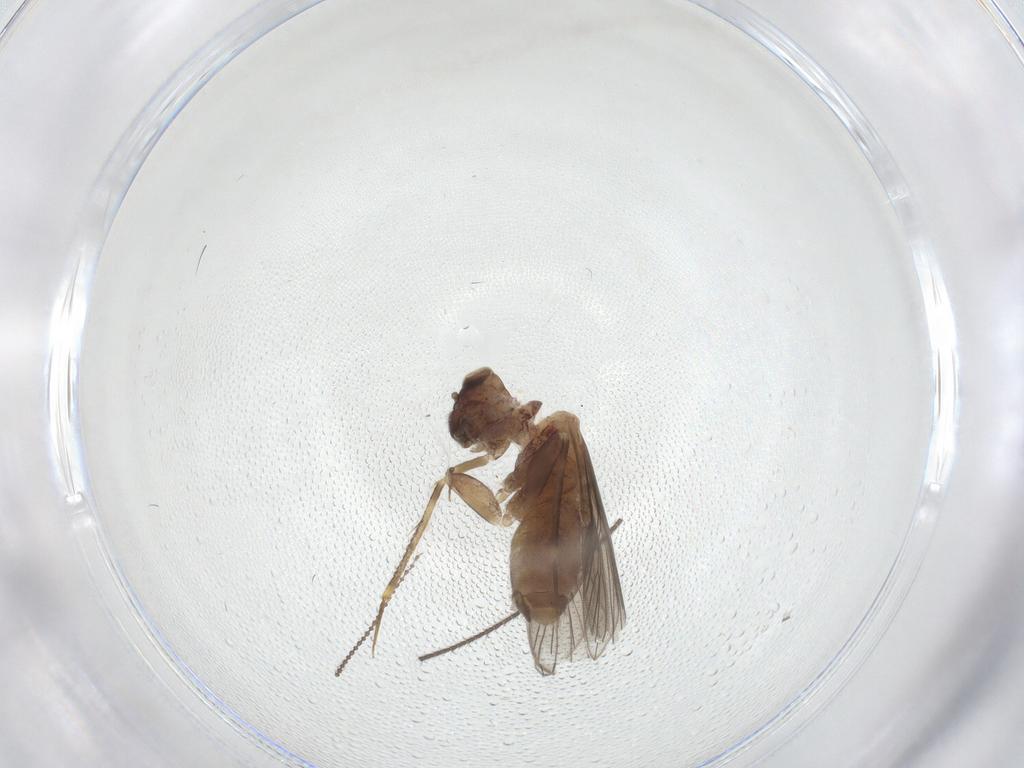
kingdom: Animalia
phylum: Arthropoda
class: Insecta
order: Psocodea
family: Lepidopsocidae
